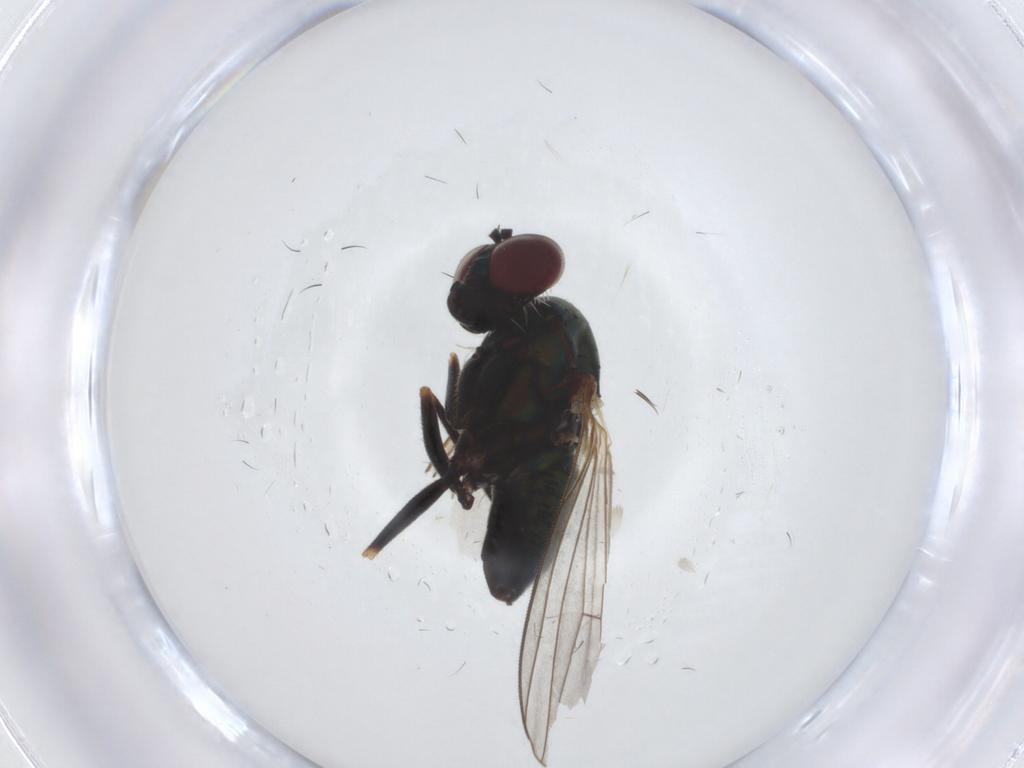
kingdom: Animalia
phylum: Arthropoda
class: Insecta
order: Diptera
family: Dolichopodidae
